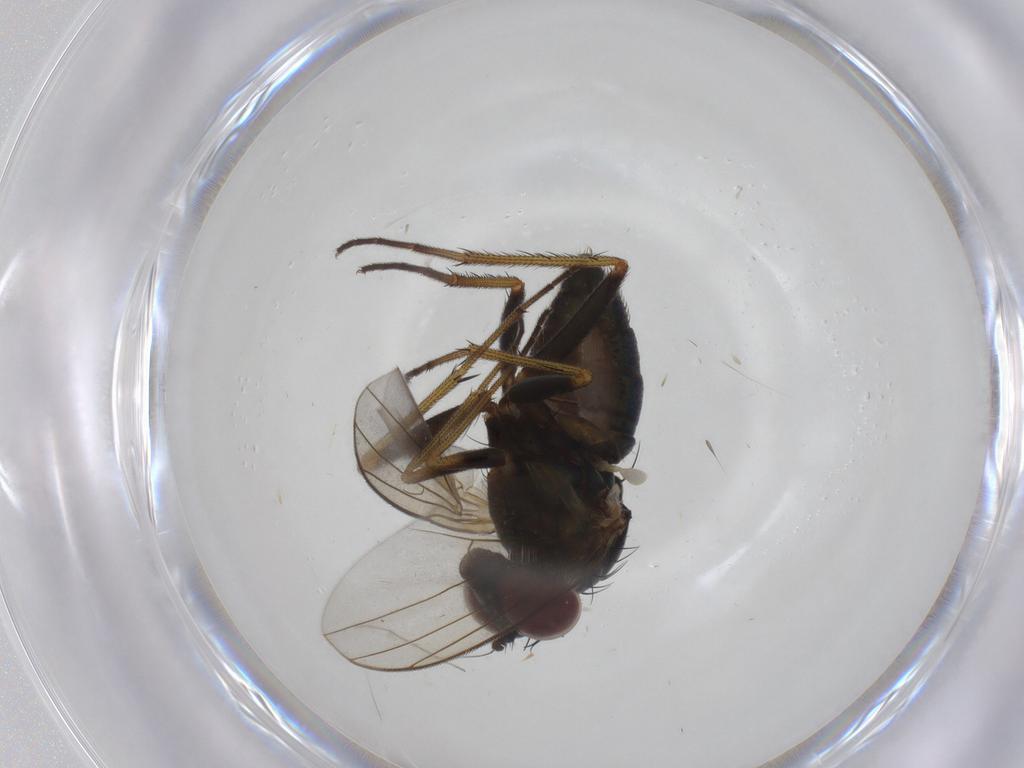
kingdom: Animalia
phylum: Arthropoda
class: Insecta
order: Diptera
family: Dolichopodidae
